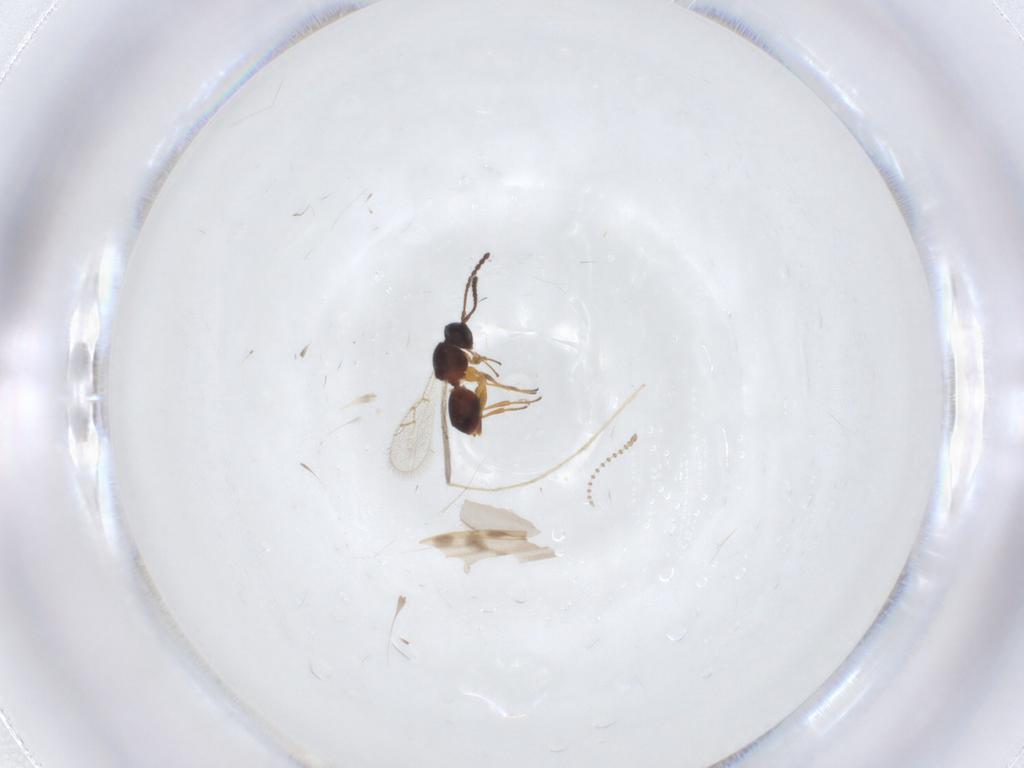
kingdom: Animalia
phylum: Arthropoda
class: Insecta
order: Hymenoptera
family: Figitidae
